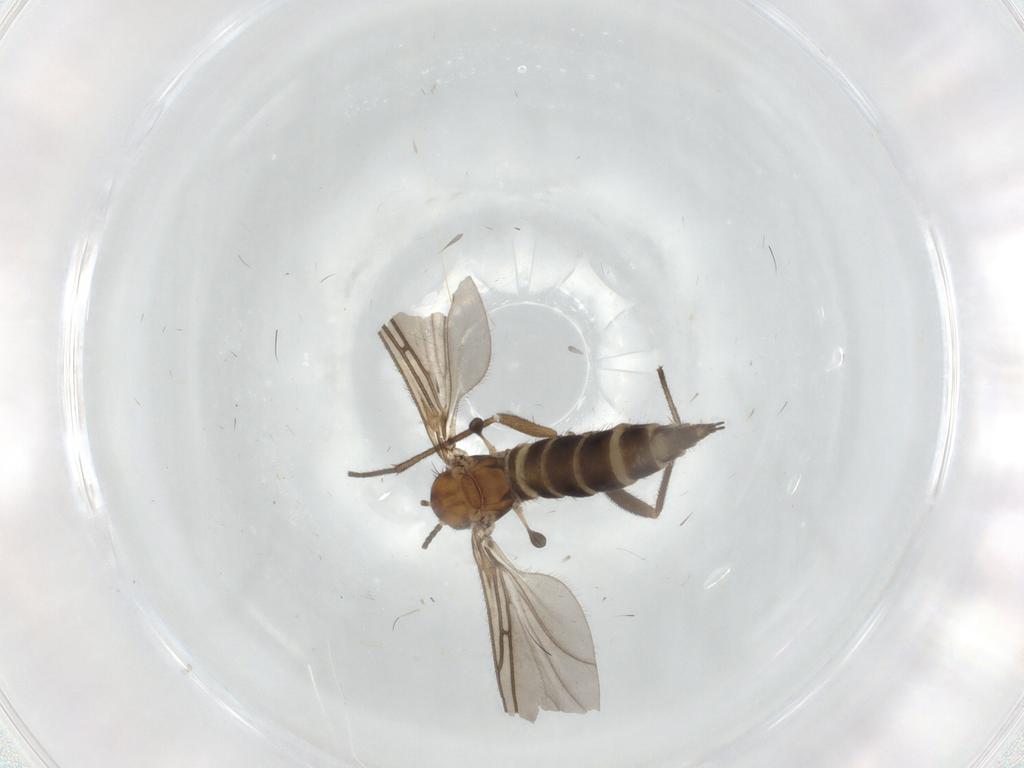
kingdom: Animalia
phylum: Arthropoda
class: Insecta
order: Diptera
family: Sciaridae
